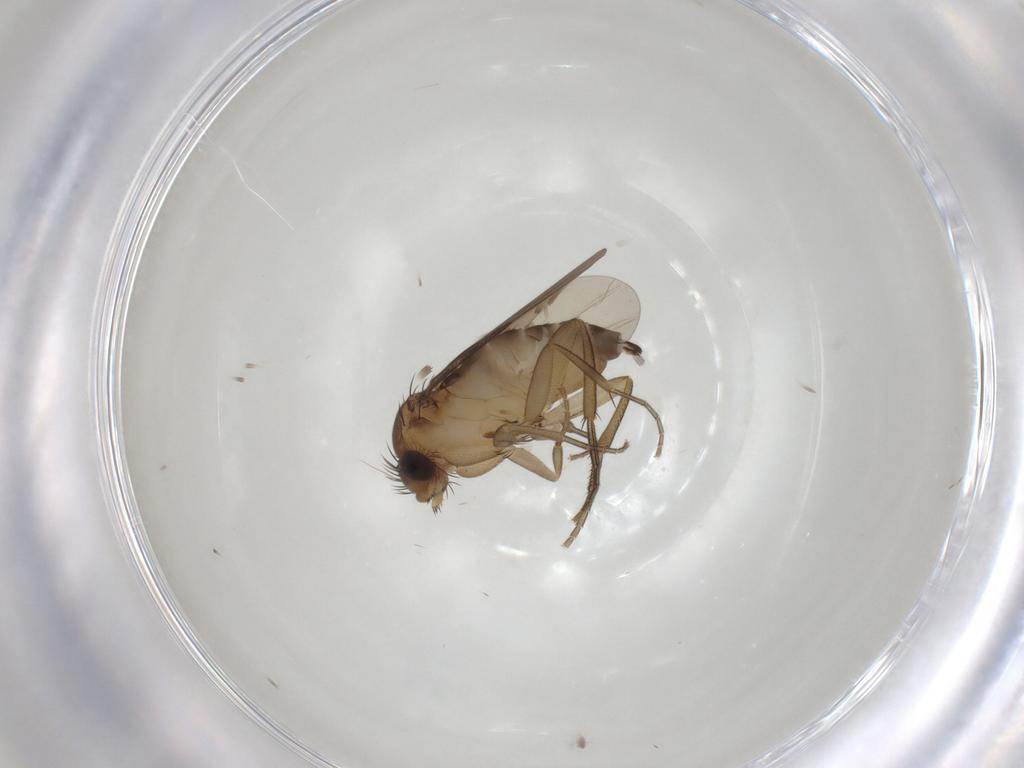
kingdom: Animalia
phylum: Arthropoda
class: Insecta
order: Diptera
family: Phoridae
